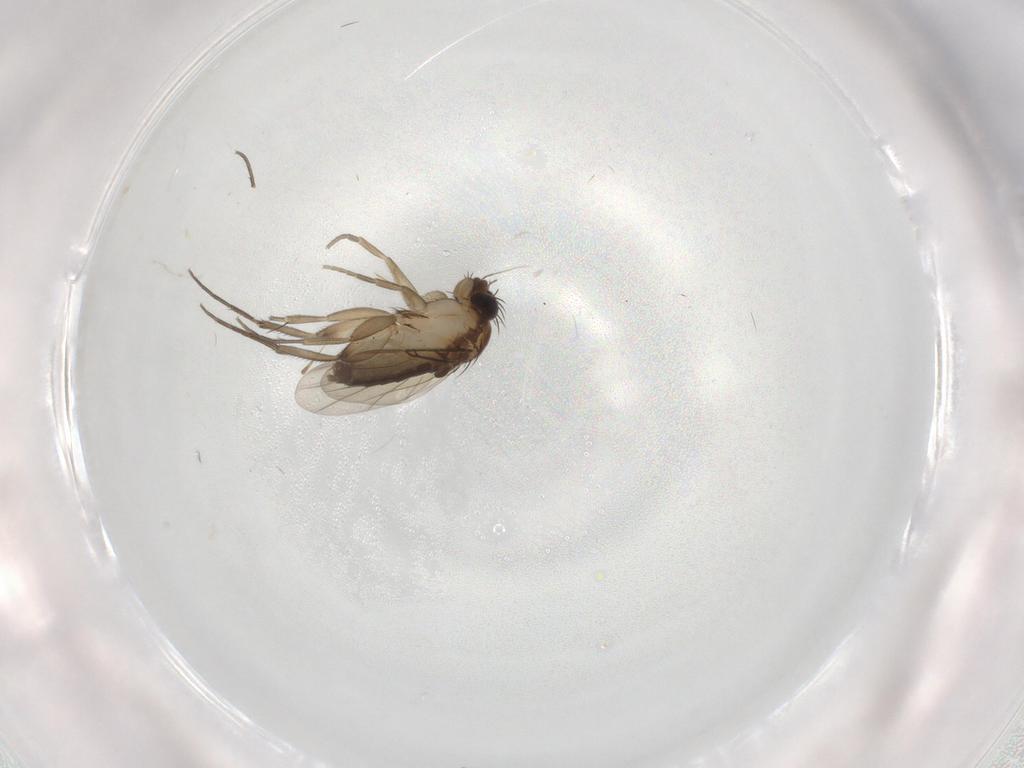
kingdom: Animalia
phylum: Arthropoda
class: Insecta
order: Diptera
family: Phoridae
